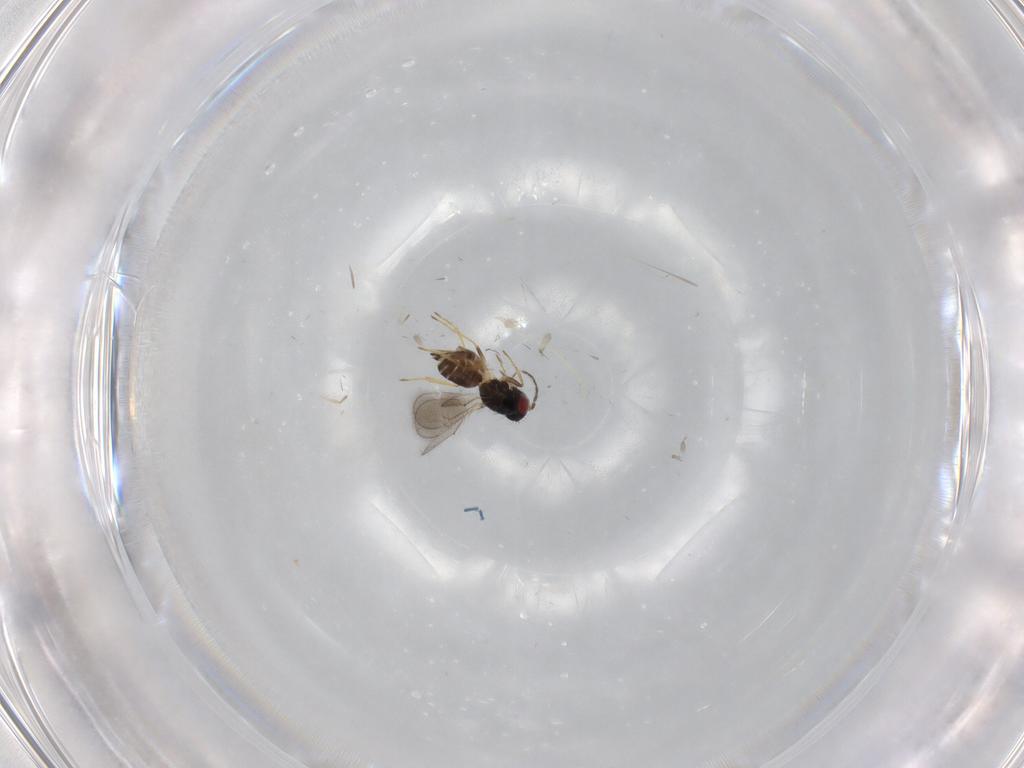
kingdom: Animalia
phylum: Arthropoda
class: Insecta
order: Hymenoptera
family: Eulophidae
